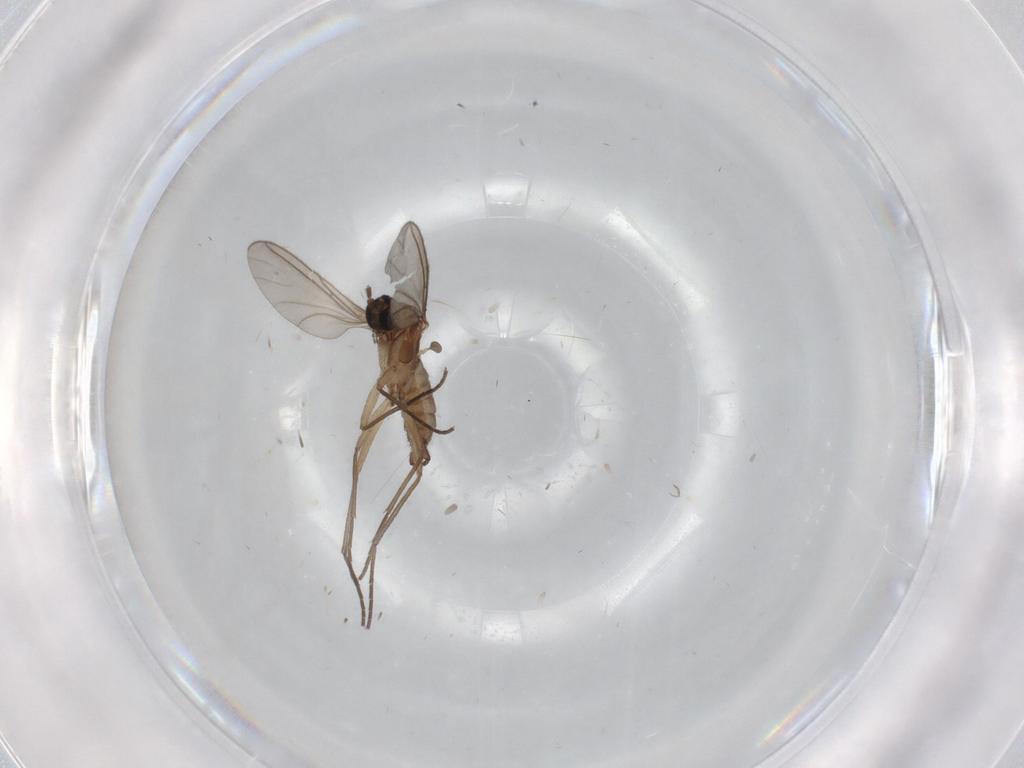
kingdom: Animalia
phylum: Arthropoda
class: Insecta
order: Diptera
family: Sciaridae
